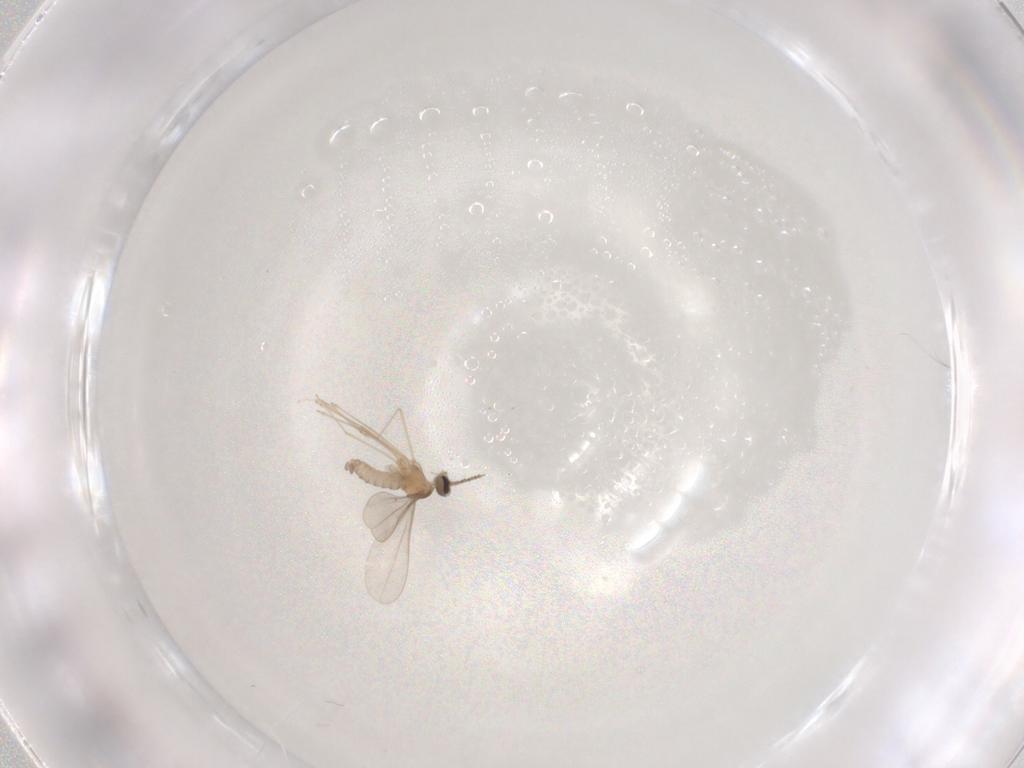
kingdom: Animalia
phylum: Arthropoda
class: Insecta
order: Diptera
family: Cecidomyiidae
